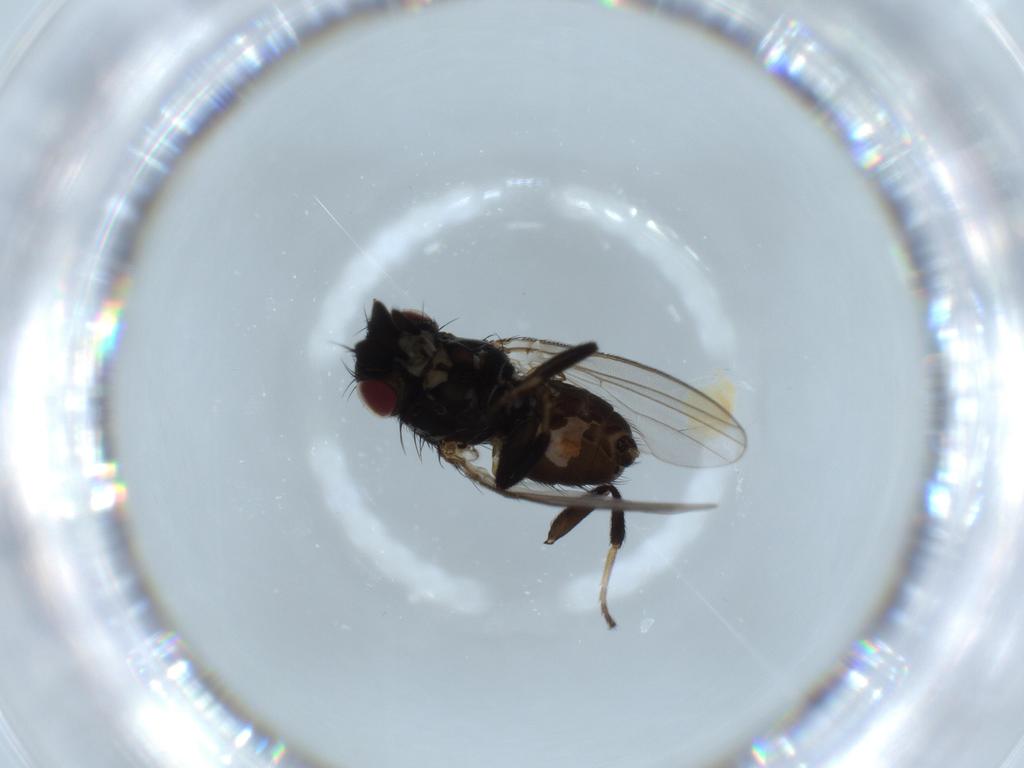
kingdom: Animalia
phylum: Arthropoda
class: Insecta
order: Diptera
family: Milichiidae
